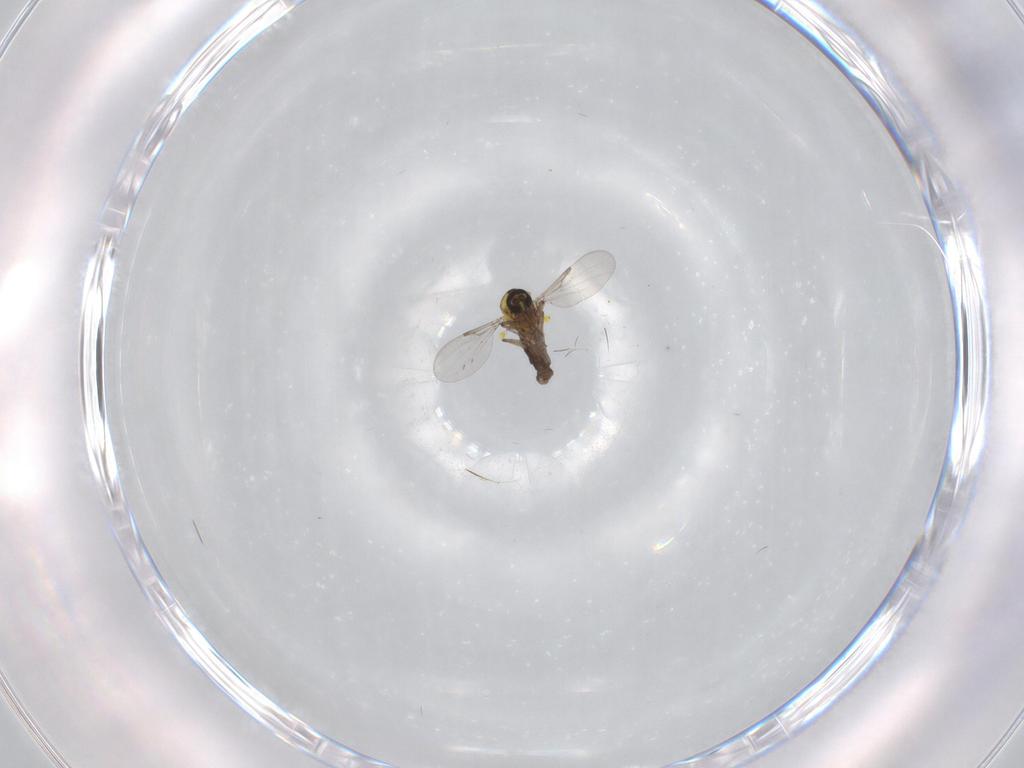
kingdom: Animalia
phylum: Arthropoda
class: Insecta
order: Diptera
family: Ceratopogonidae
